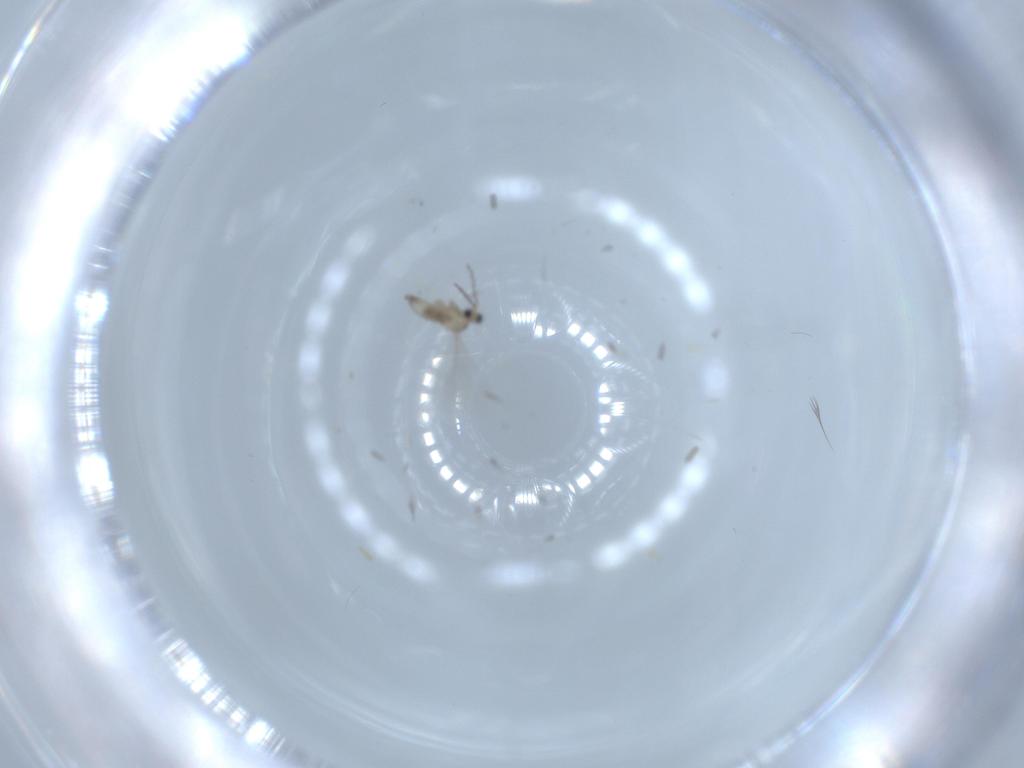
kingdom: Animalia
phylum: Arthropoda
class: Insecta
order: Diptera
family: Cecidomyiidae
